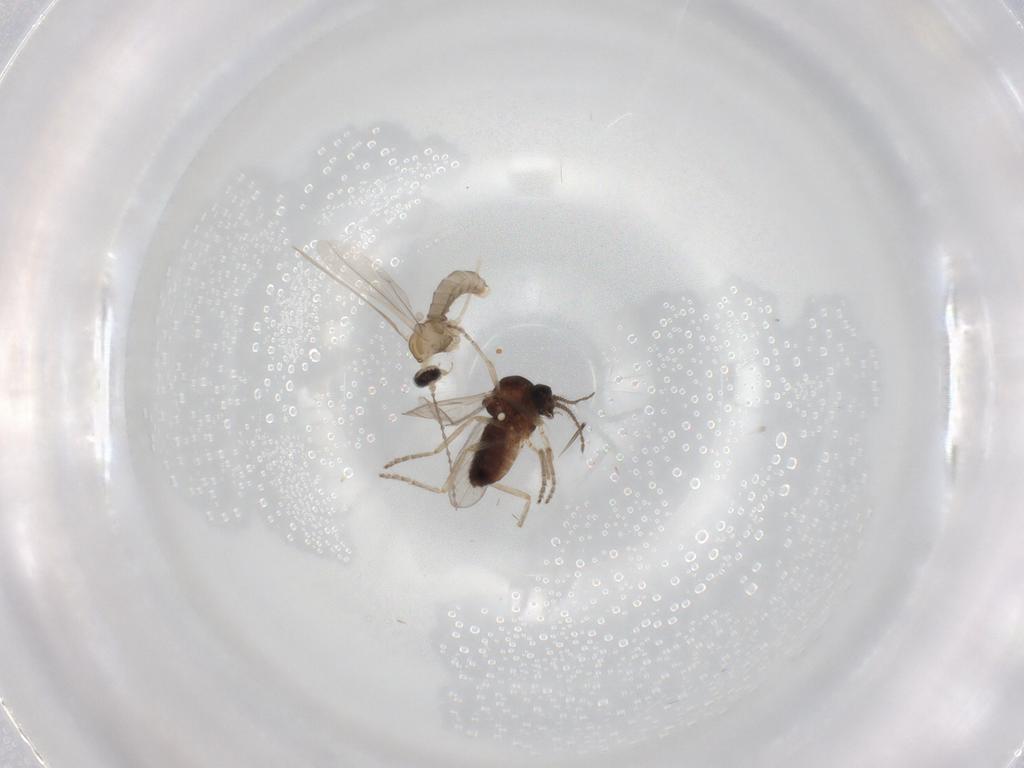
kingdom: Animalia
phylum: Arthropoda
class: Insecta
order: Diptera
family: Ceratopogonidae
